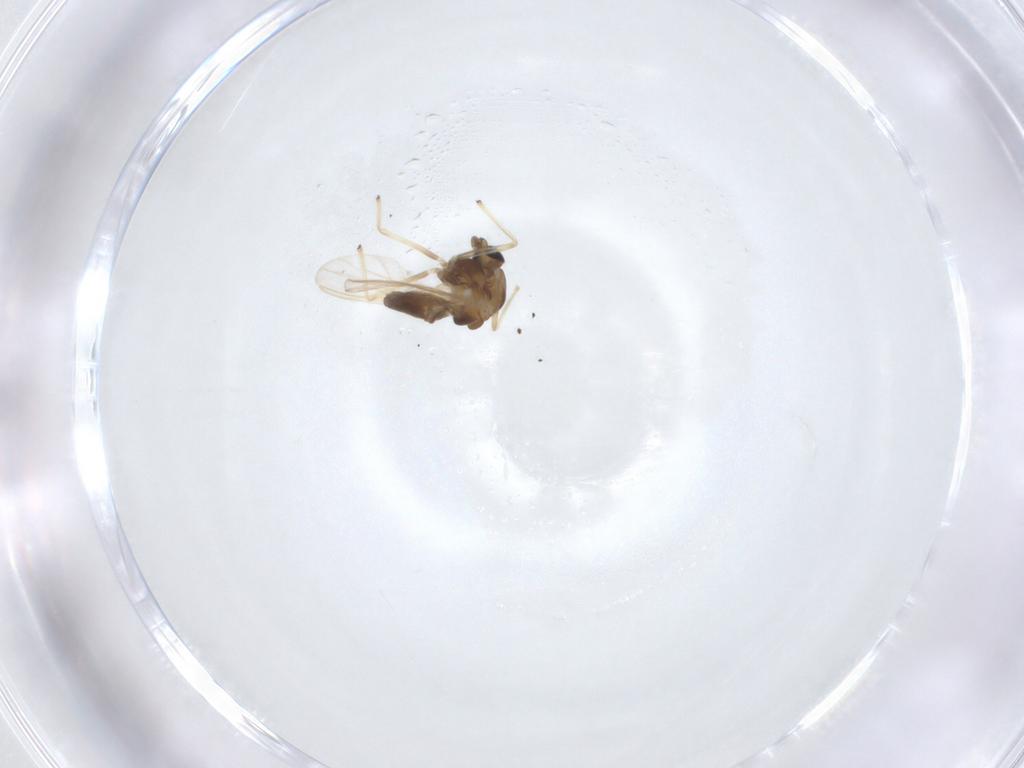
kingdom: Animalia
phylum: Arthropoda
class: Insecta
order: Diptera
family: Chironomidae
